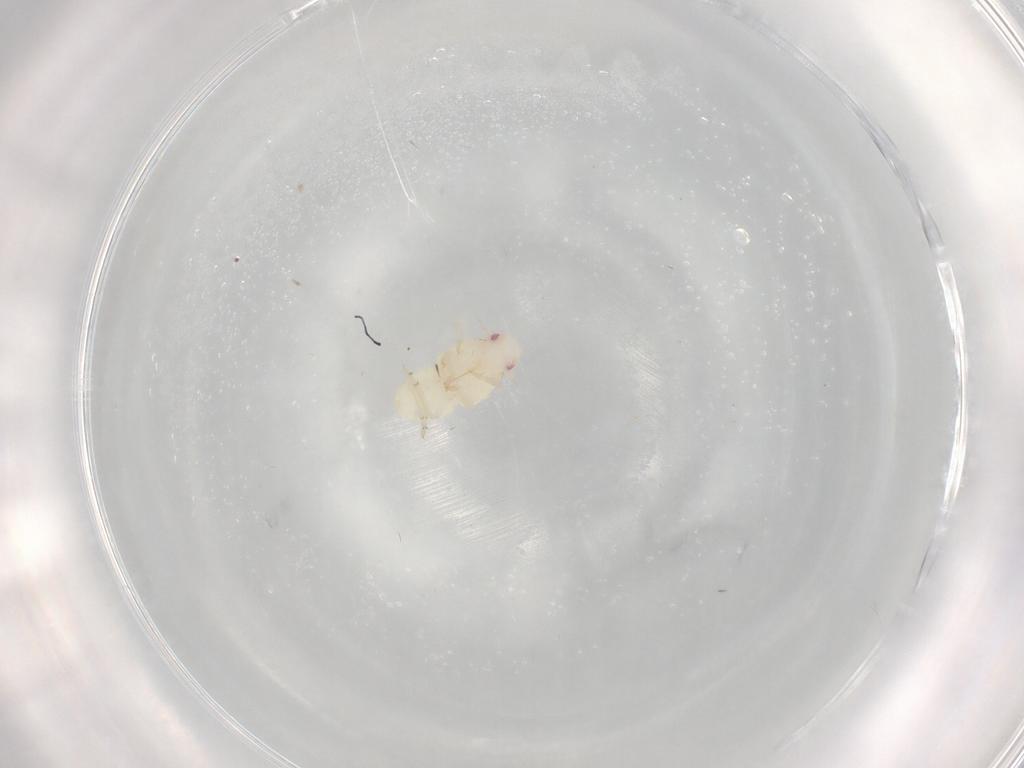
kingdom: Animalia
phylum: Arthropoda
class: Insecta
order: Hemiptera
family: Flatidae
